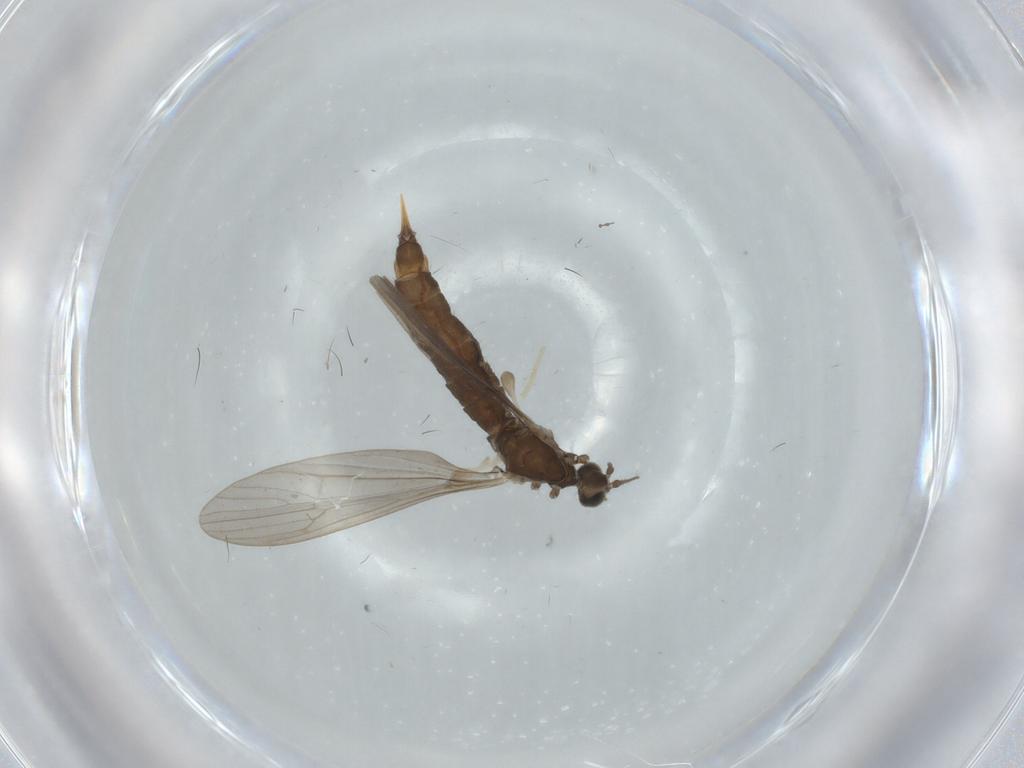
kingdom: Animalia
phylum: Arthropoda
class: Insecta
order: Diptera
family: Limoniidae
